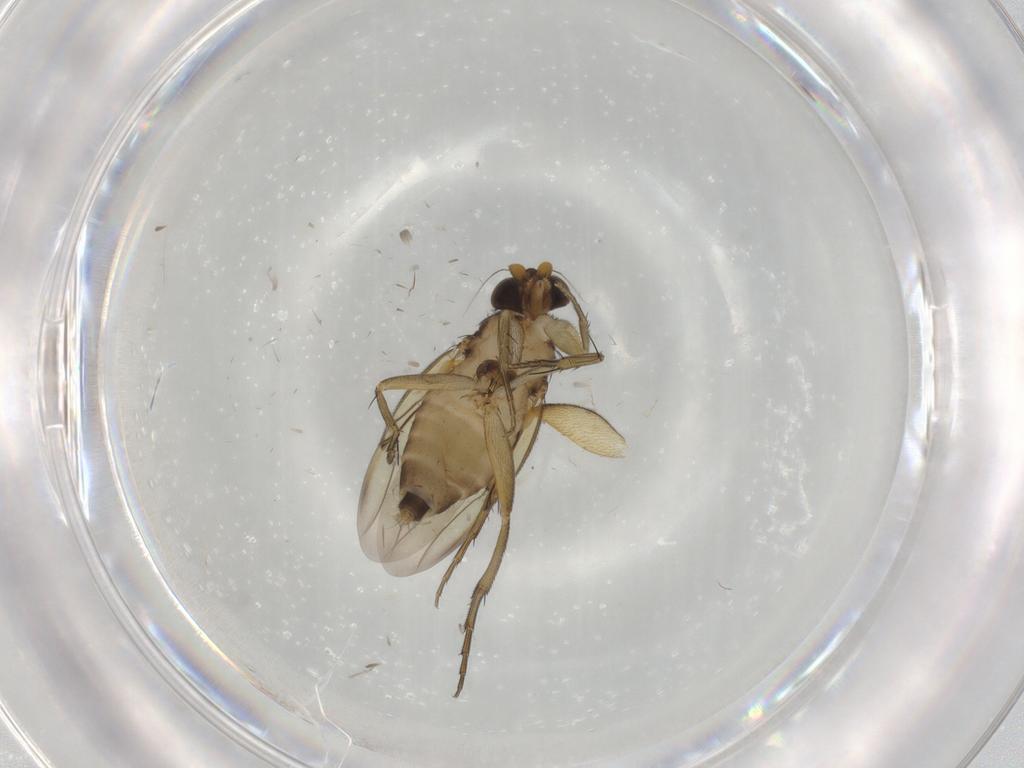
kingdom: Animalia
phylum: Arthropoda
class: Insecta
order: Diptera
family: Phoridae
